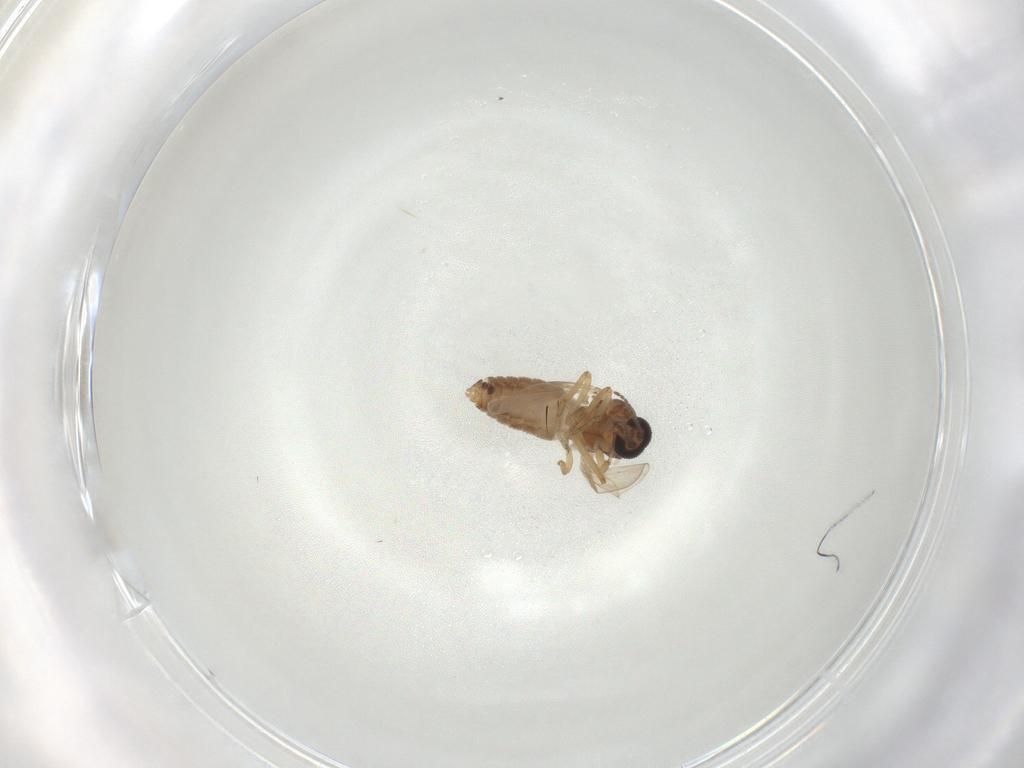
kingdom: Animalia
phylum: Arthropoda
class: Insecta
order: Diptera
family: Ceratopogonidae
